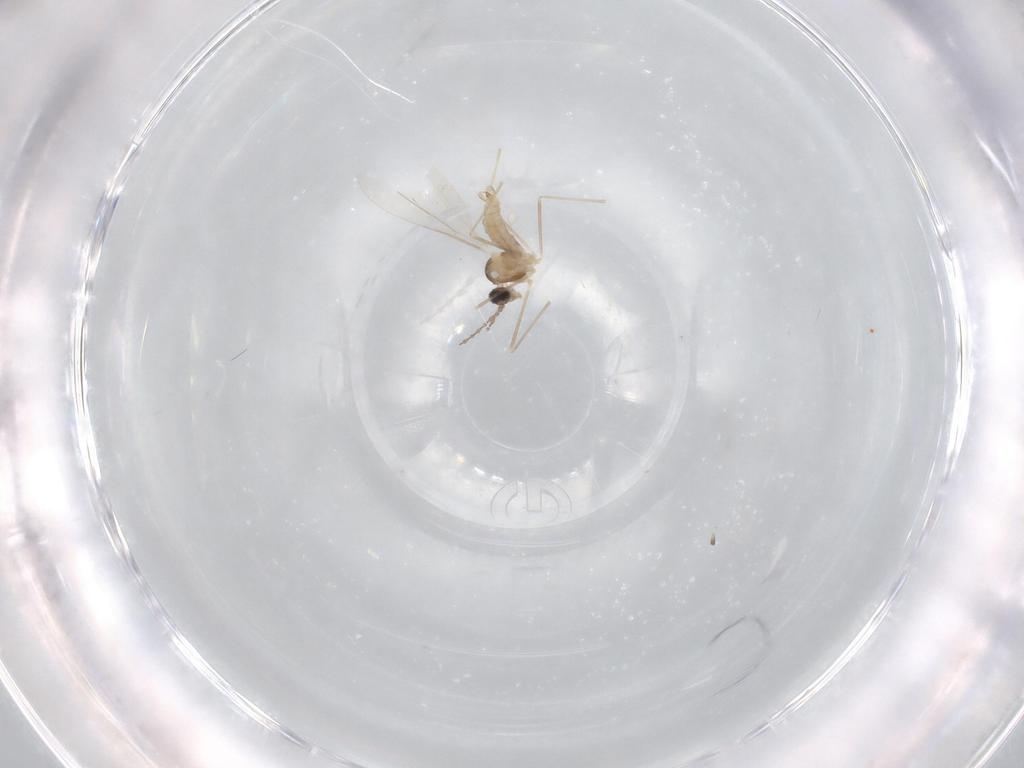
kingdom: Animalia
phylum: Arthropoda
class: Insecta
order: Diptera
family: Cecidomyiidae
